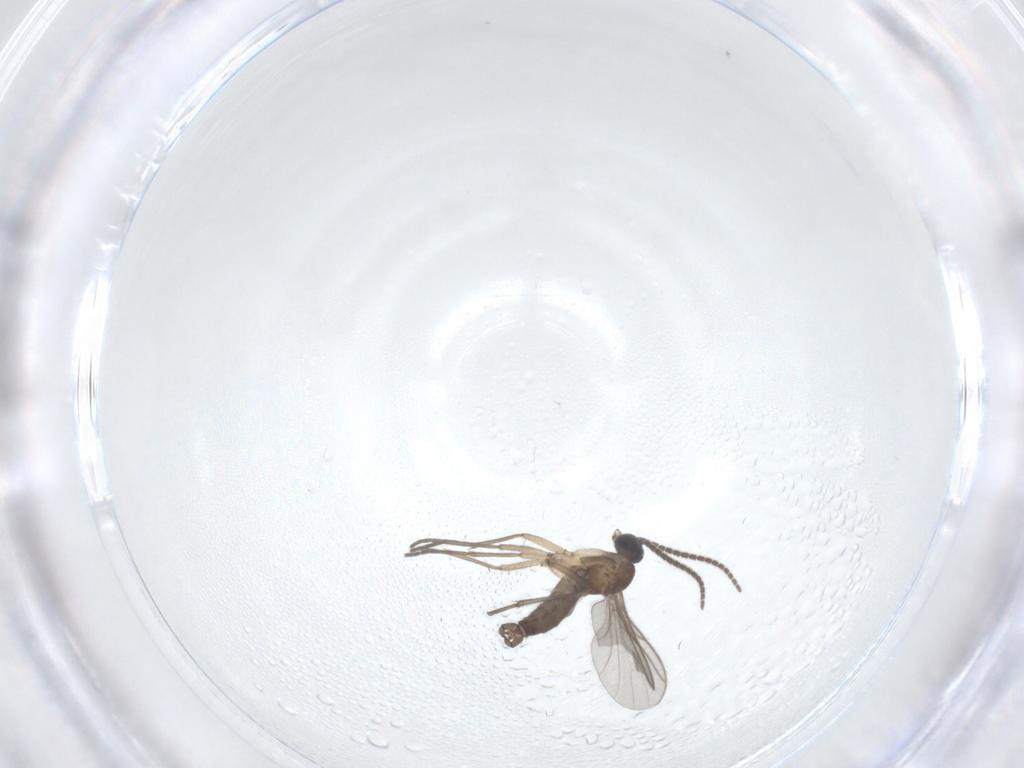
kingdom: Animalia
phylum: Arthropoda
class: Insecta
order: Diptera
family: Sciaridae
